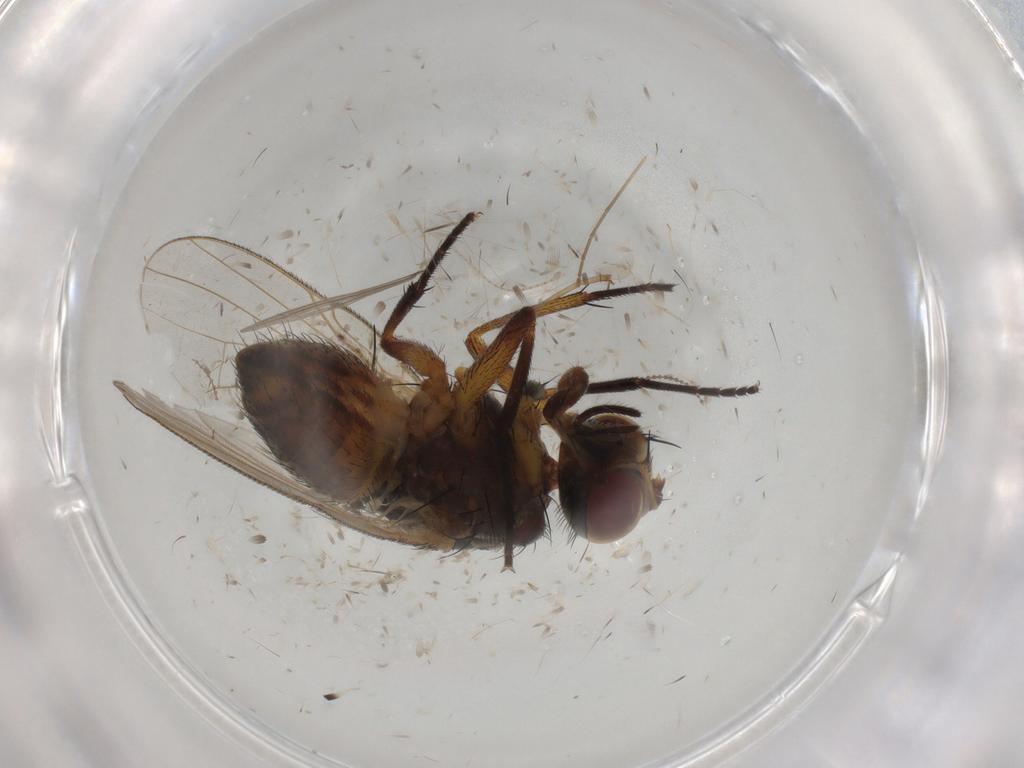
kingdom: Animalia
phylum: Arthropoda
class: Insecta
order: Diptera
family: Muscidae
